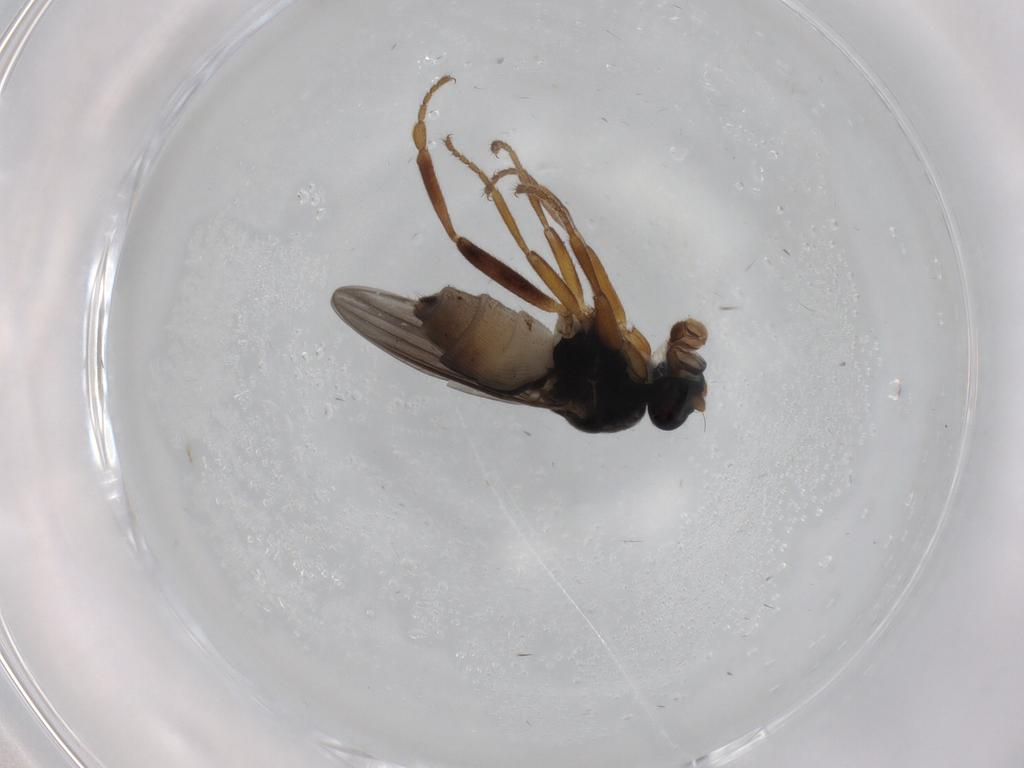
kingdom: Animalia
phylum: Arthropoda
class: Insecta
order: Diptera
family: Sphaeroceridae
